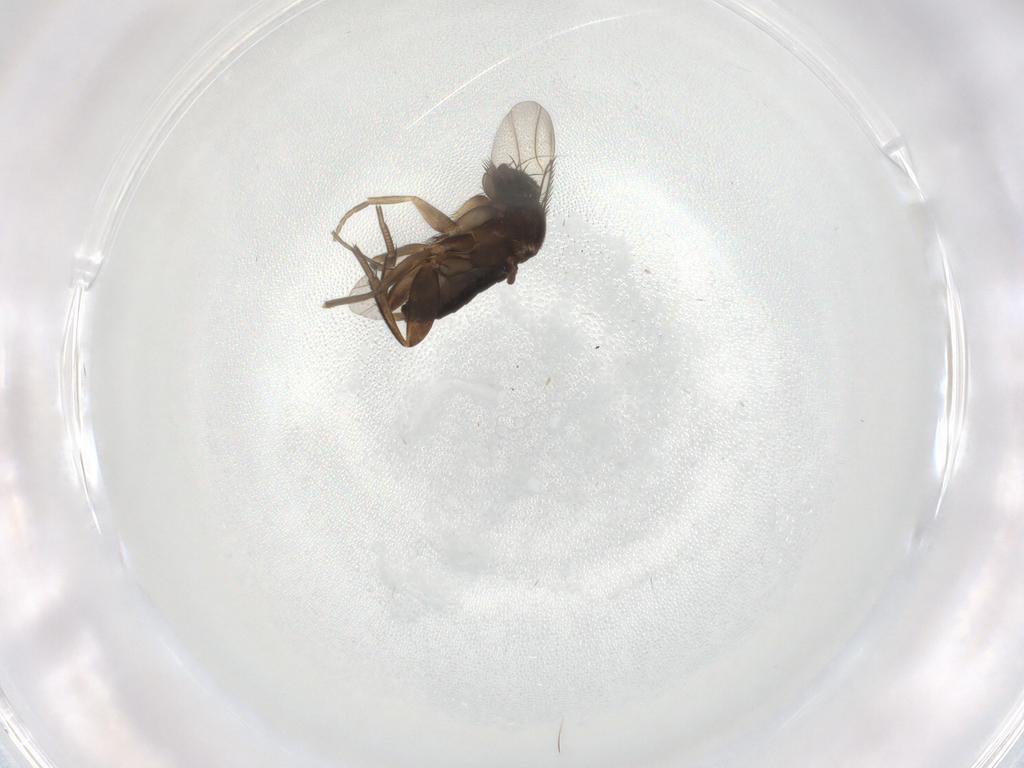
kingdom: Animalia
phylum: Arthropoda
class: Insecta
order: Diptera
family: Phoridae
